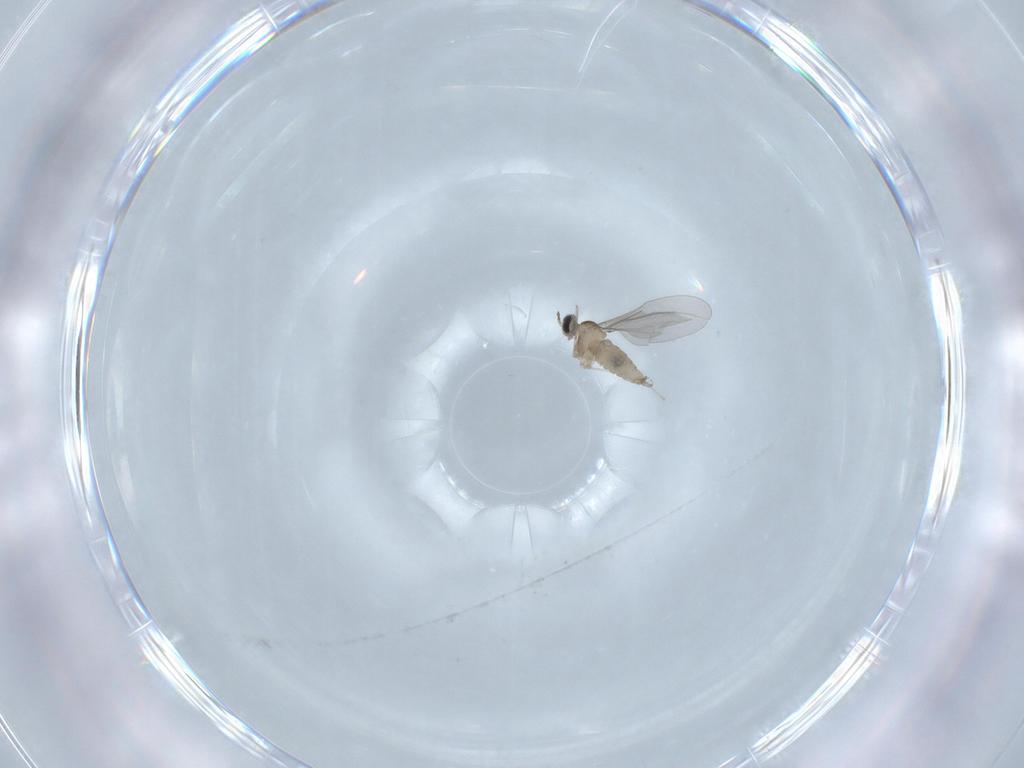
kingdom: Animalia
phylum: Arthropoda
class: Insecta
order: Diptera
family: Cecidomyiidae
